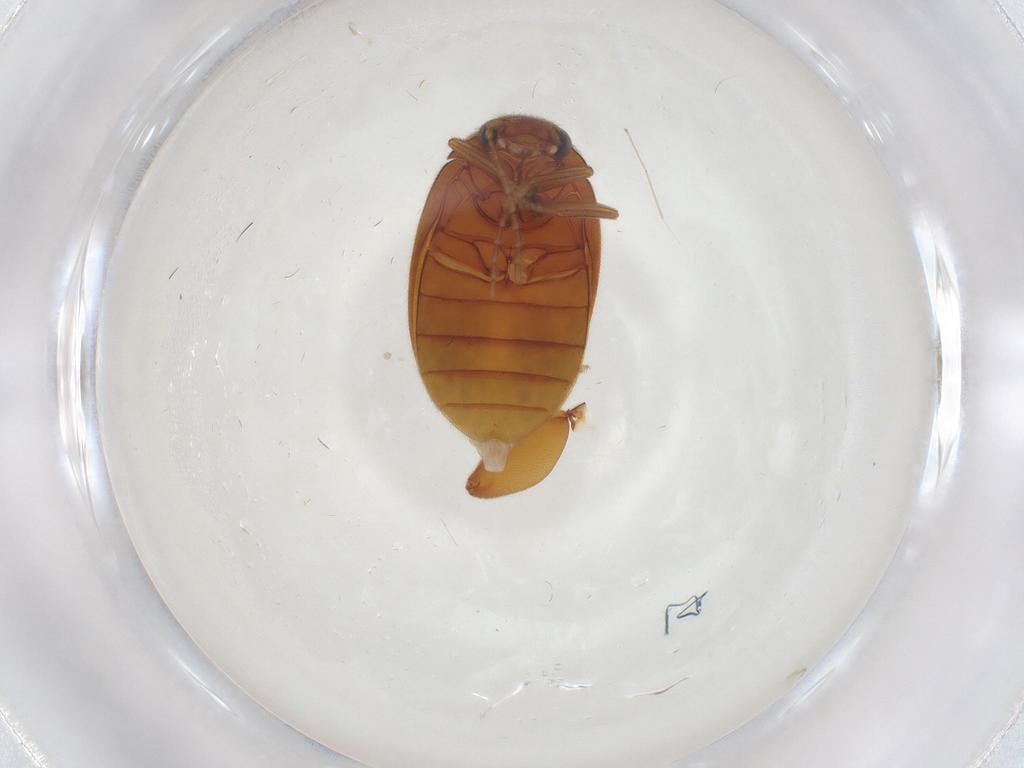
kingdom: Animalia
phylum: Arthropoda
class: Insecta
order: Coleoptera
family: Scirtidae
